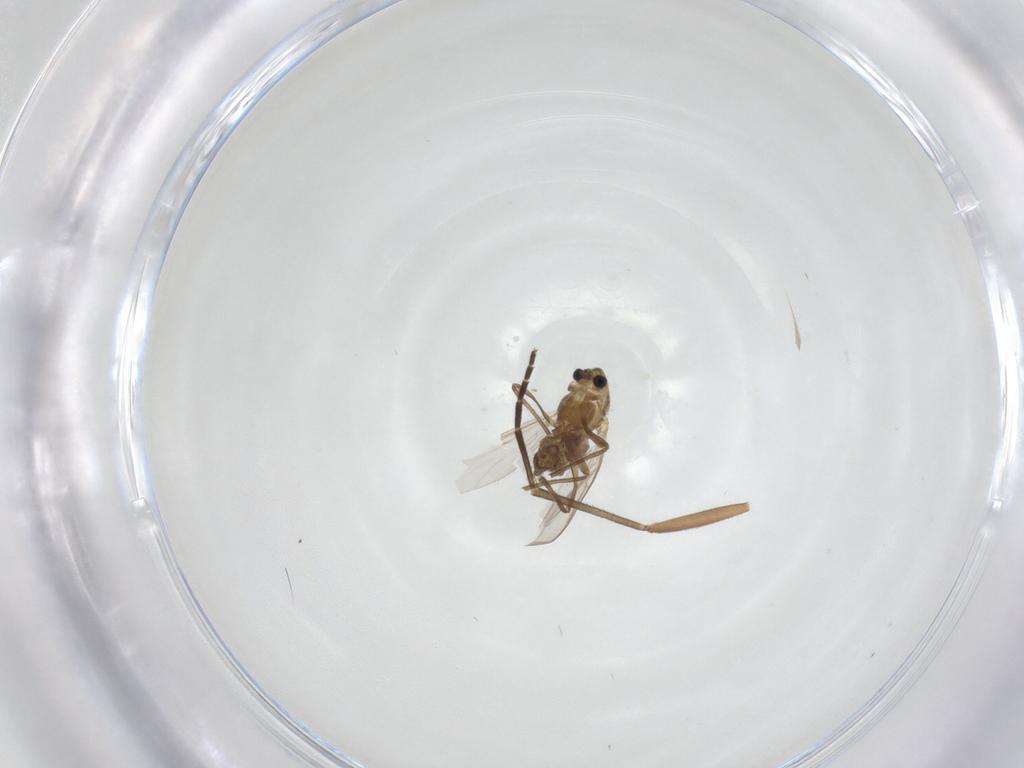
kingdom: Animalia
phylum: Arthropoda
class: Insecta
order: Diptera
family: Chironomidae
